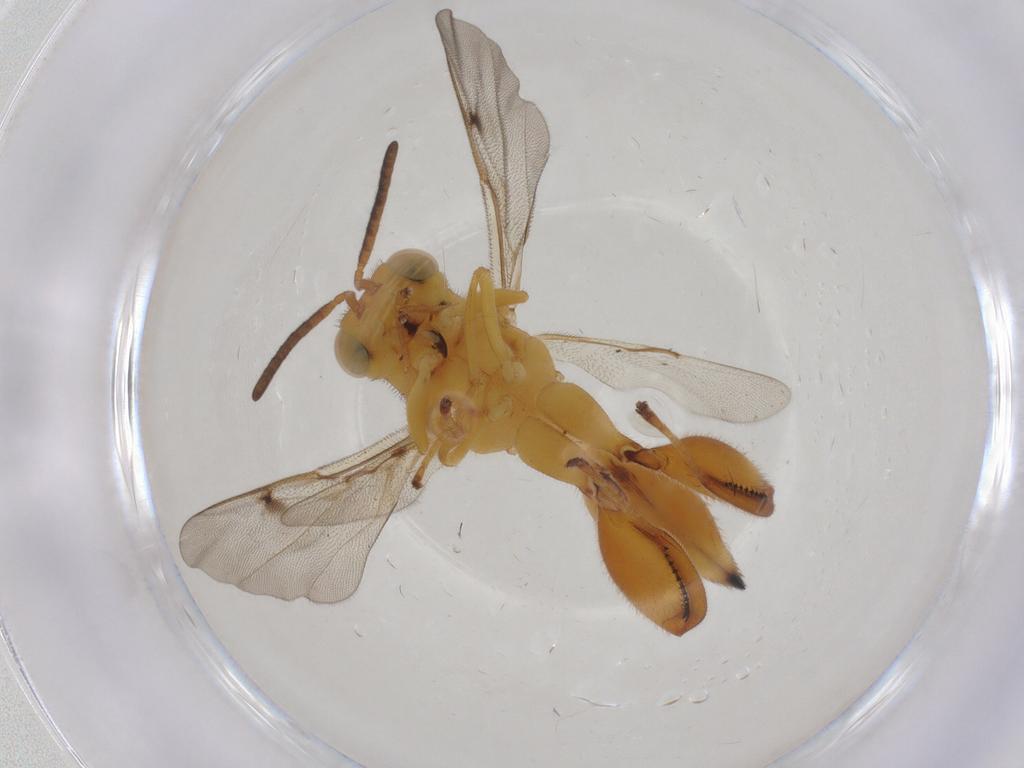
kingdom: Animalia
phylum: Arthropoda
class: Insecta
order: Hymenoptera
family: Chalcididae
